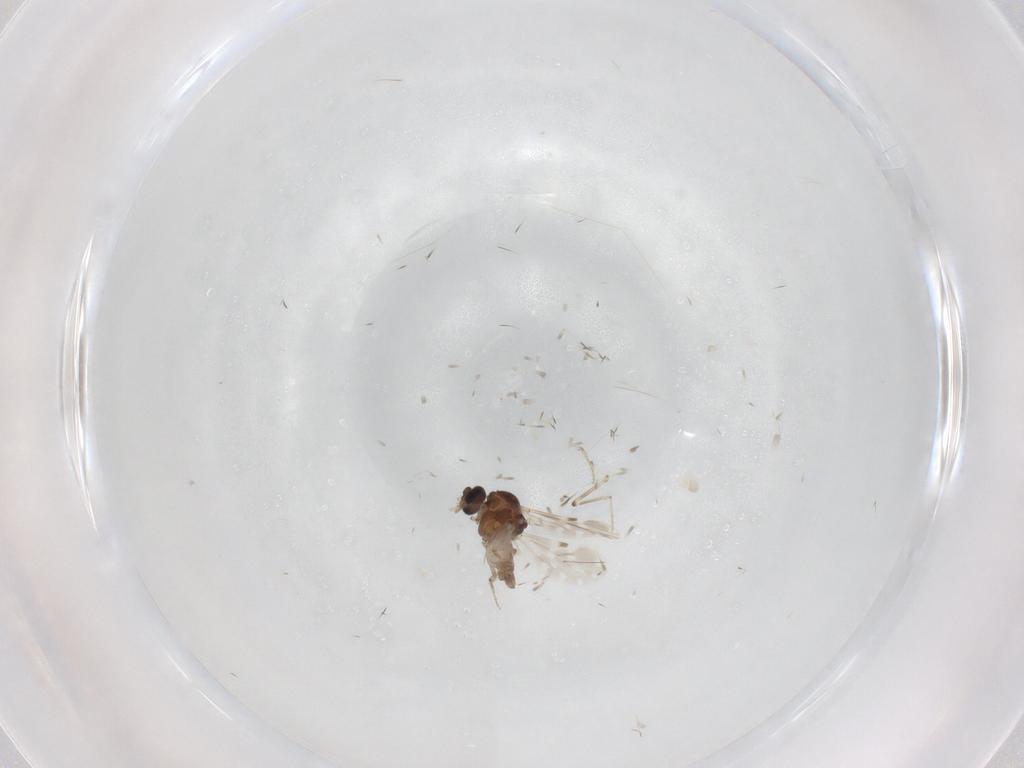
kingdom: Animalia
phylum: Arthropoda
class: Insecta
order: Diptera
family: Ceratopogonidae
